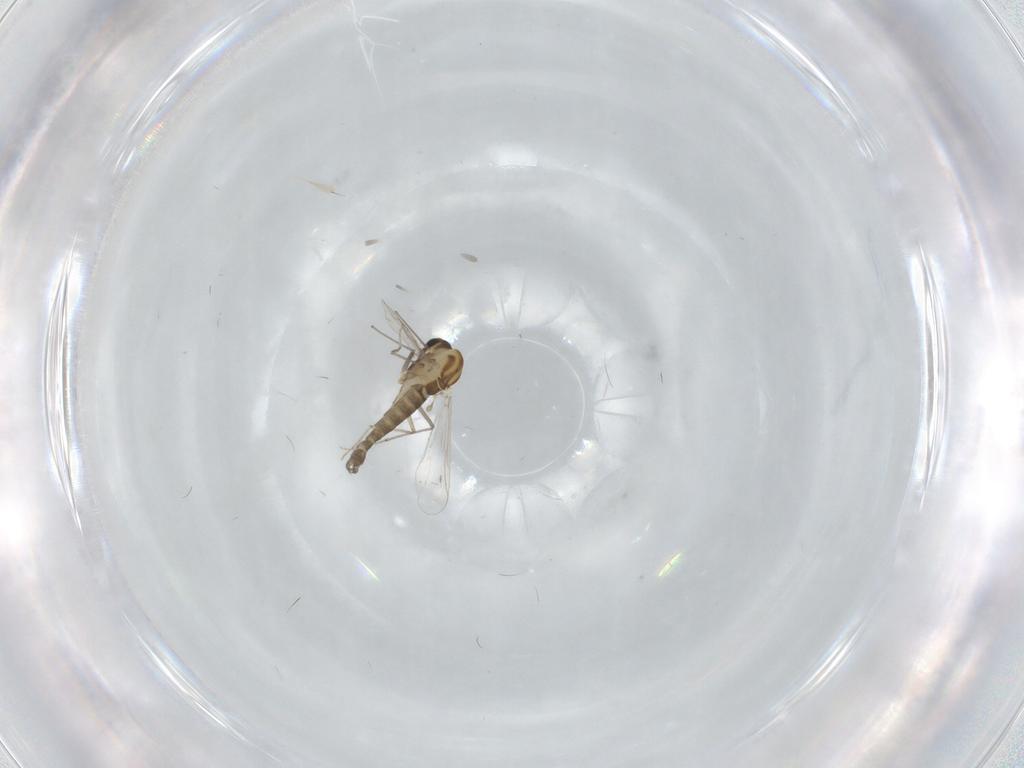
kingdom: Animalia
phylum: Arthropoda
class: Insecta
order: Diptera
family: Chironomidae
